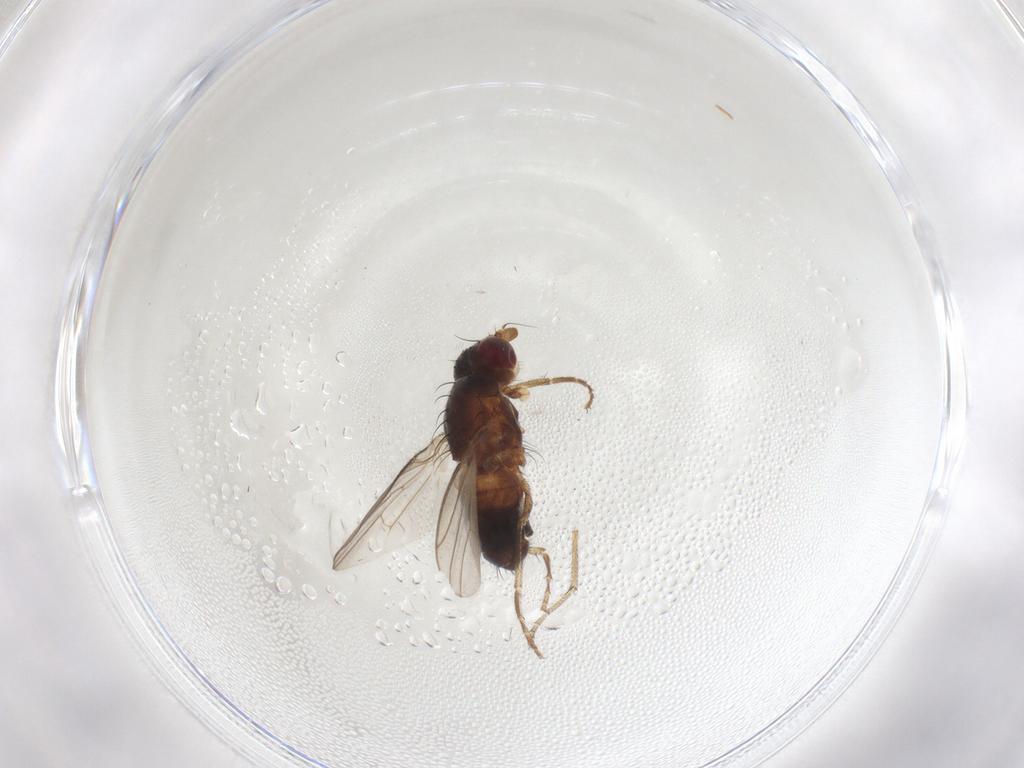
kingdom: Animalia
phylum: Arthropoda
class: Insecta
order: Diptera
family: Heleomyzidae
